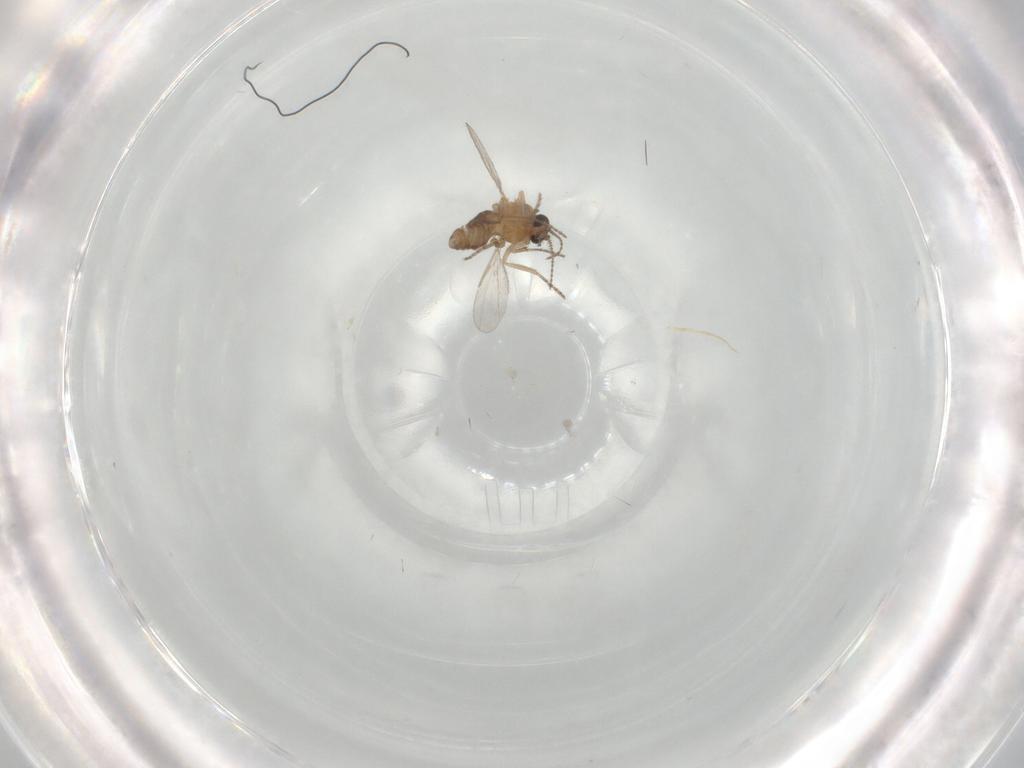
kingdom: Animalia
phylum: Arthropoda
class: Insecta
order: Diptera
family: Ceratopogonidae
